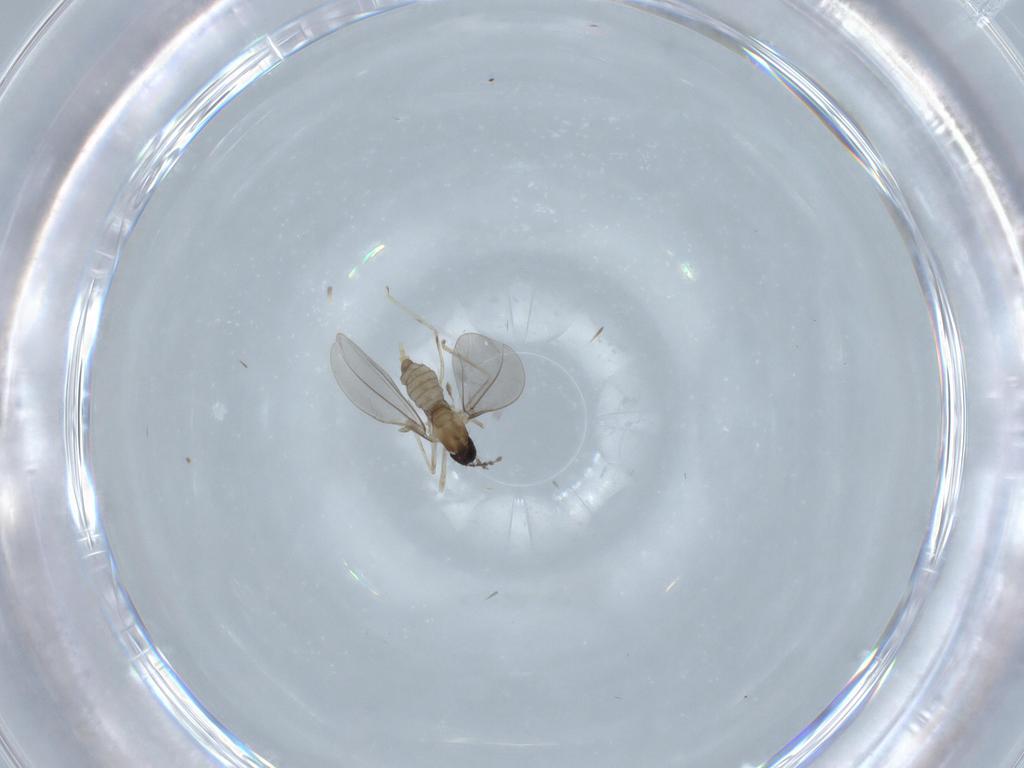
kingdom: Animalia
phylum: Arthropoda
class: Insecta
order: Diptera
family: Cecidomyiidae
